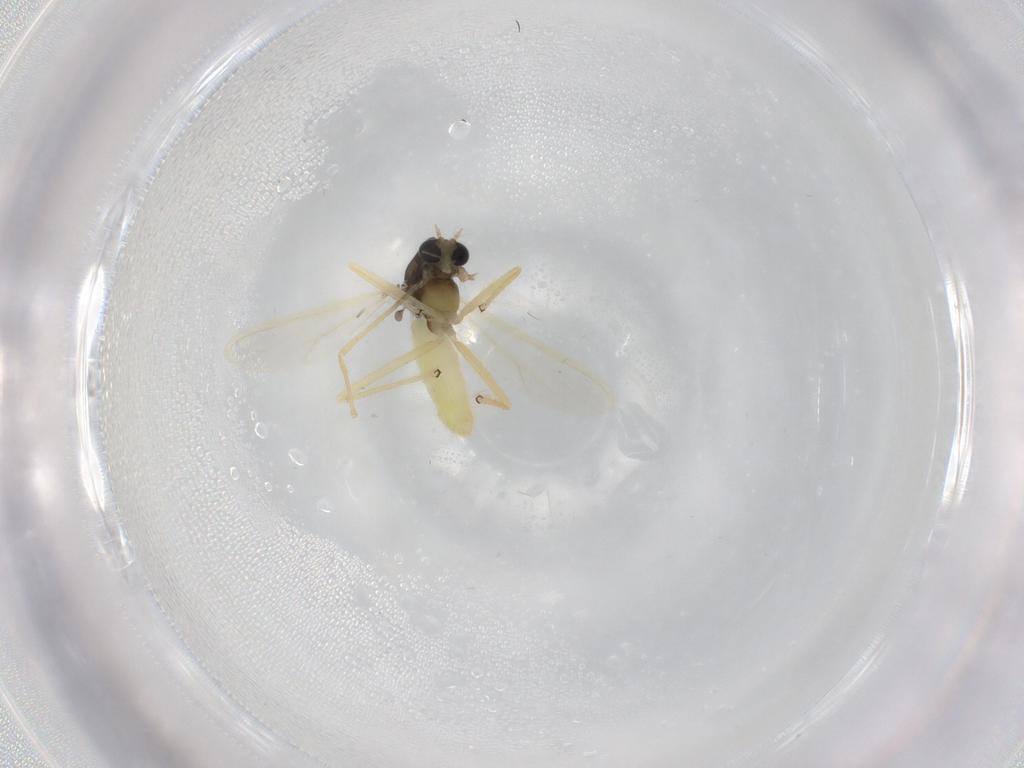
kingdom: Animalia
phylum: Arthropoda
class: Insecta
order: Diptera
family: Chironomidae
